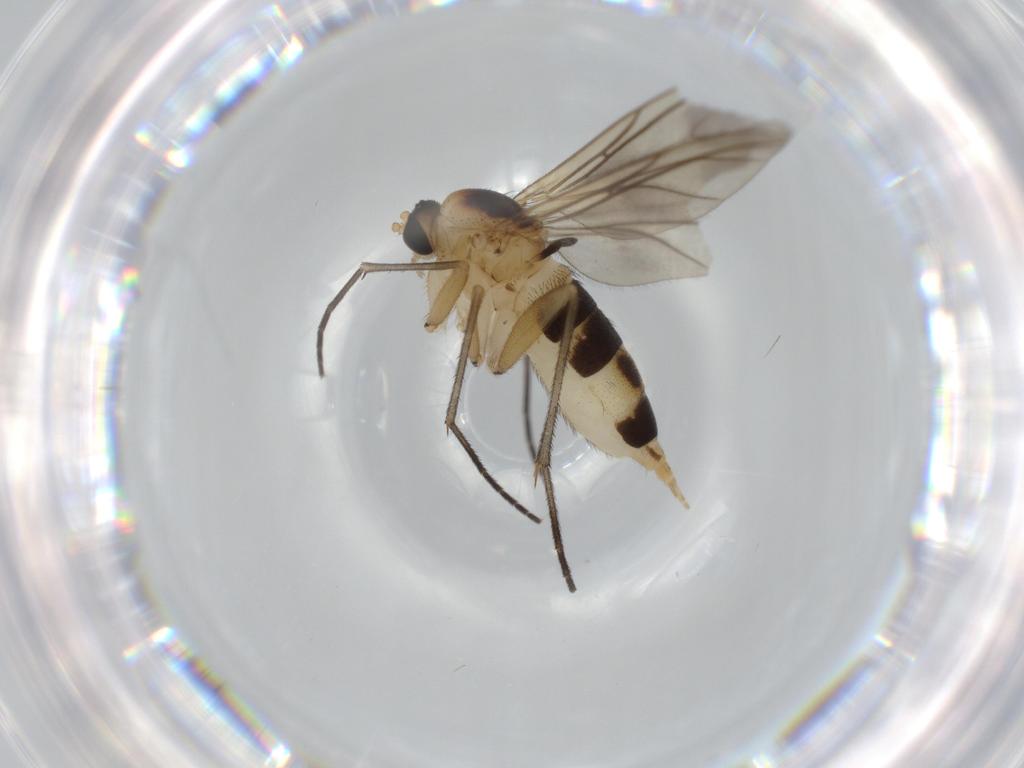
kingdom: Animalia
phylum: Arthropoda
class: Insecta
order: Diptera
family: Sciaridae
